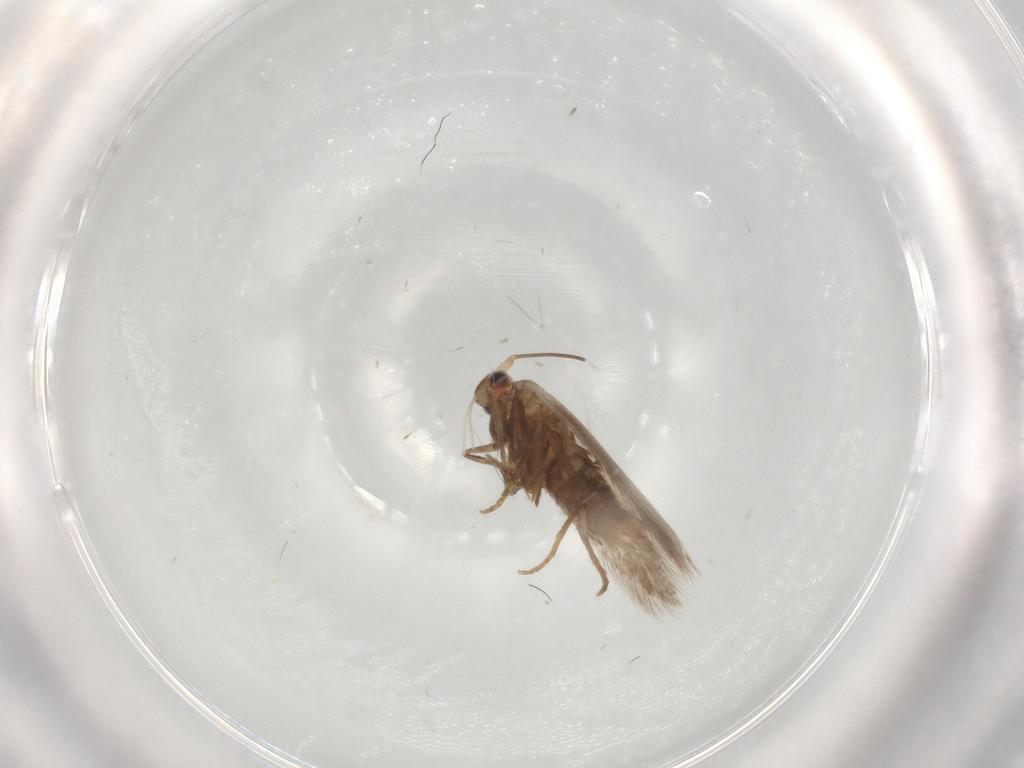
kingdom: Animalia
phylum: Arthropoda
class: Insecta
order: Lepidoptera
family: Bucculatricidae
